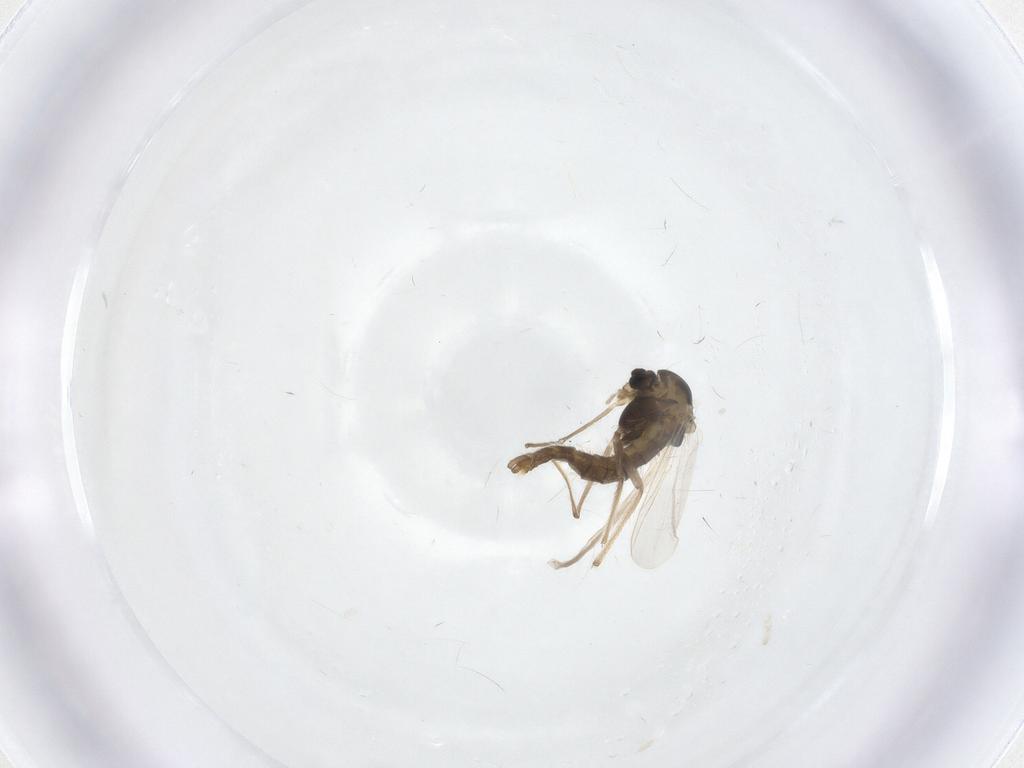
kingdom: Animalia
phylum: Arthropoda
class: Insecta
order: Diptera
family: Chironomidae
